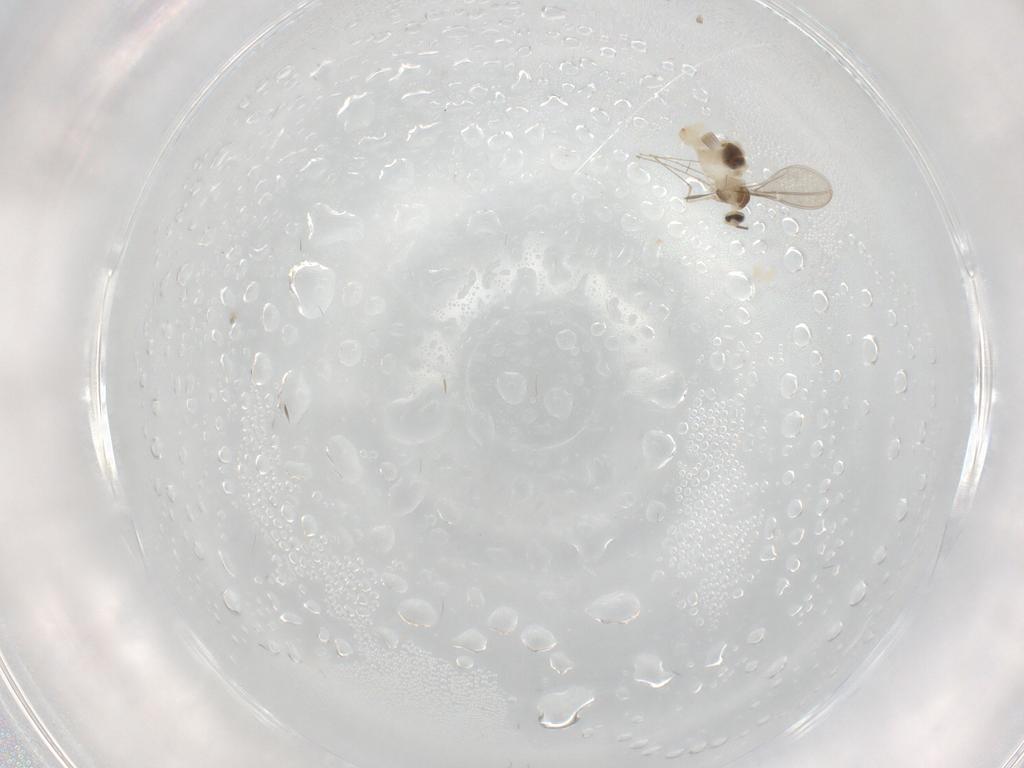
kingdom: Animalia
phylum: Arthropoda
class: Insecta
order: Diptera
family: Cecidomyiidae
